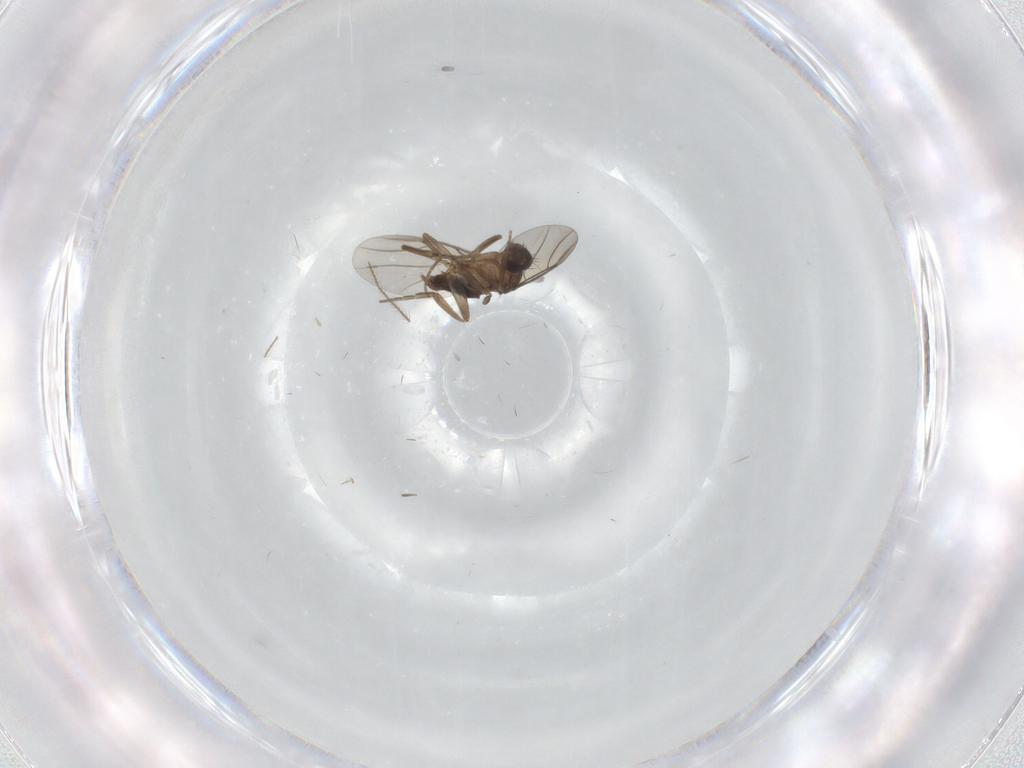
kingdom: Animalia
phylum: Arthropoda
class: Insecta
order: Diptera
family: Phoridae
